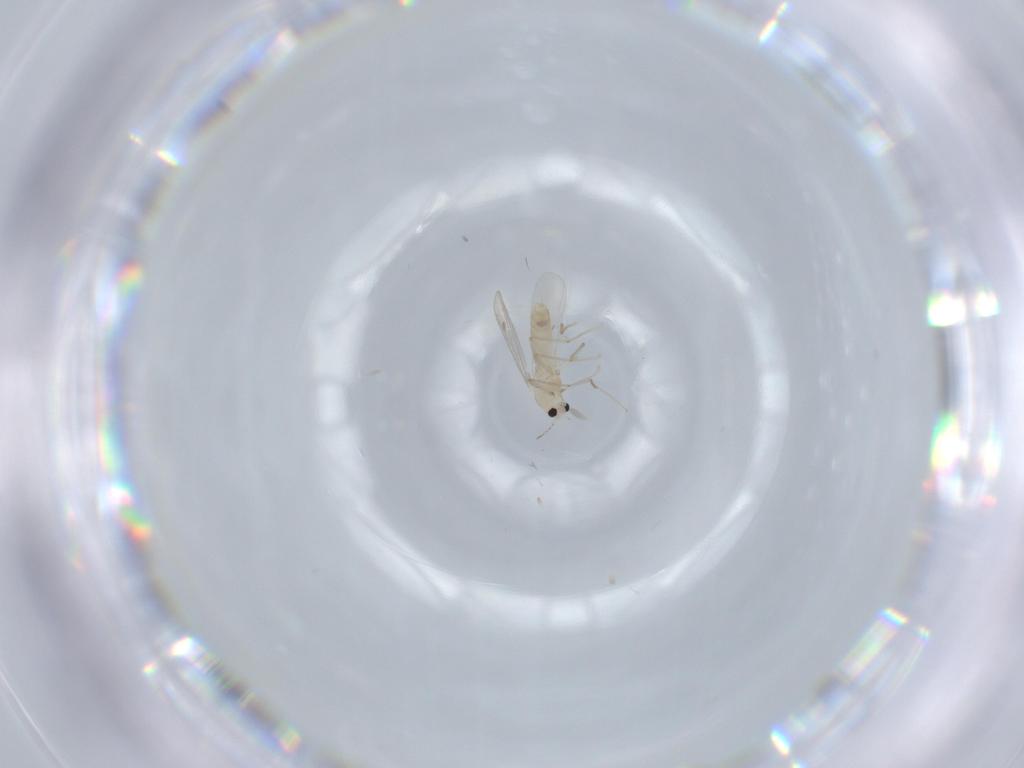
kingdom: Animalia
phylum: Arthropoda
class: Insecta
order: Diptera
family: Chironomidae
